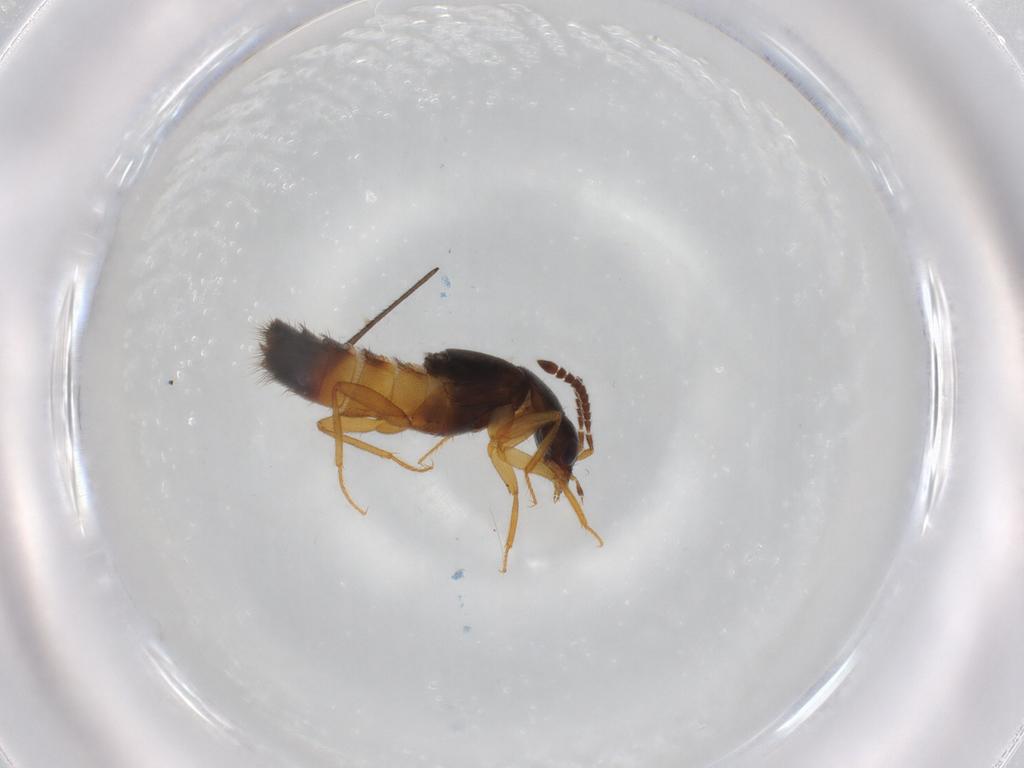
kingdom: Animalia
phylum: Arthropoda
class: Insecta
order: Coleoptera
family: Staphylinidae
